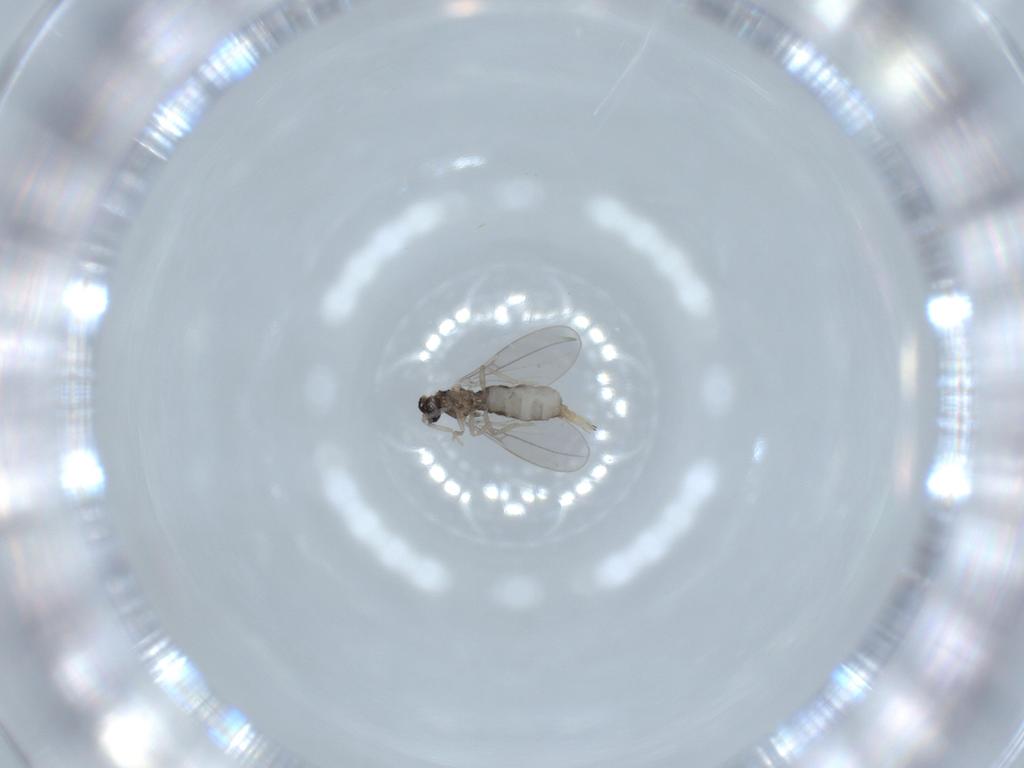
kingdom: Animalia
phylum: Arthropoda
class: Insecta
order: Diptera
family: Cecidomyiidae
